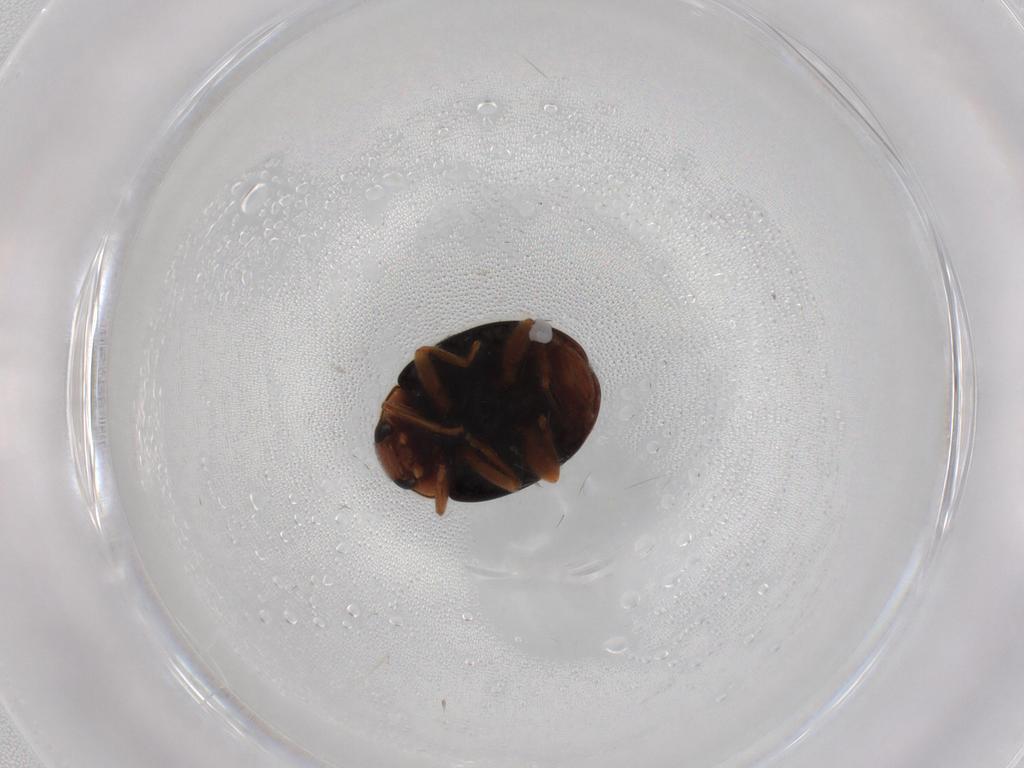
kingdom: Animalia
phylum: Arthropoda
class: Insecta
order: Coleoptera
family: Coccinellidae
